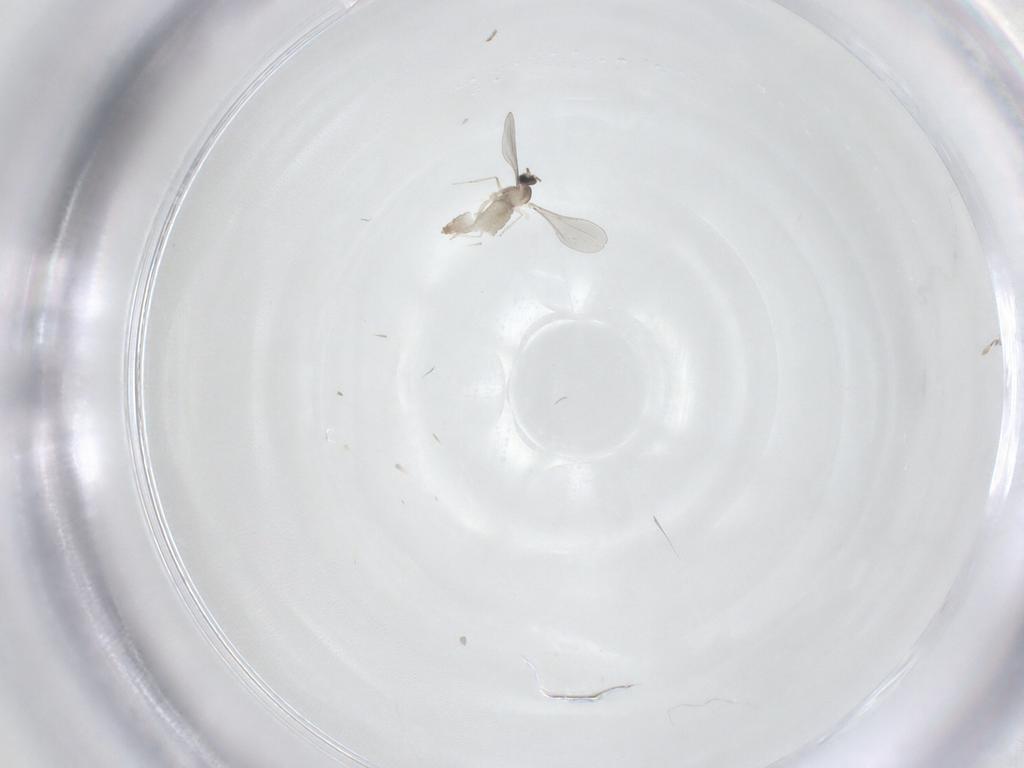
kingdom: Animalia
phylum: Arthropoda
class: Insecta
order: Diptera
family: Cecidomyiidae
